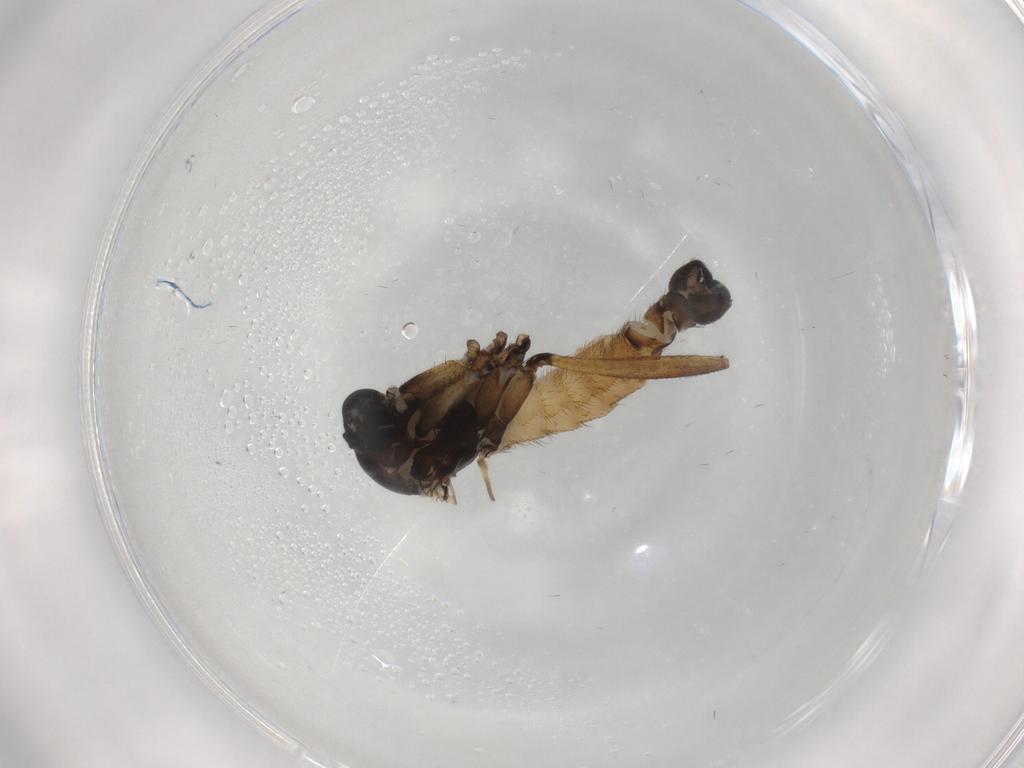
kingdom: Animalia
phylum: Arthropoda
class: Insecta
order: Diptera
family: Sciaridae
